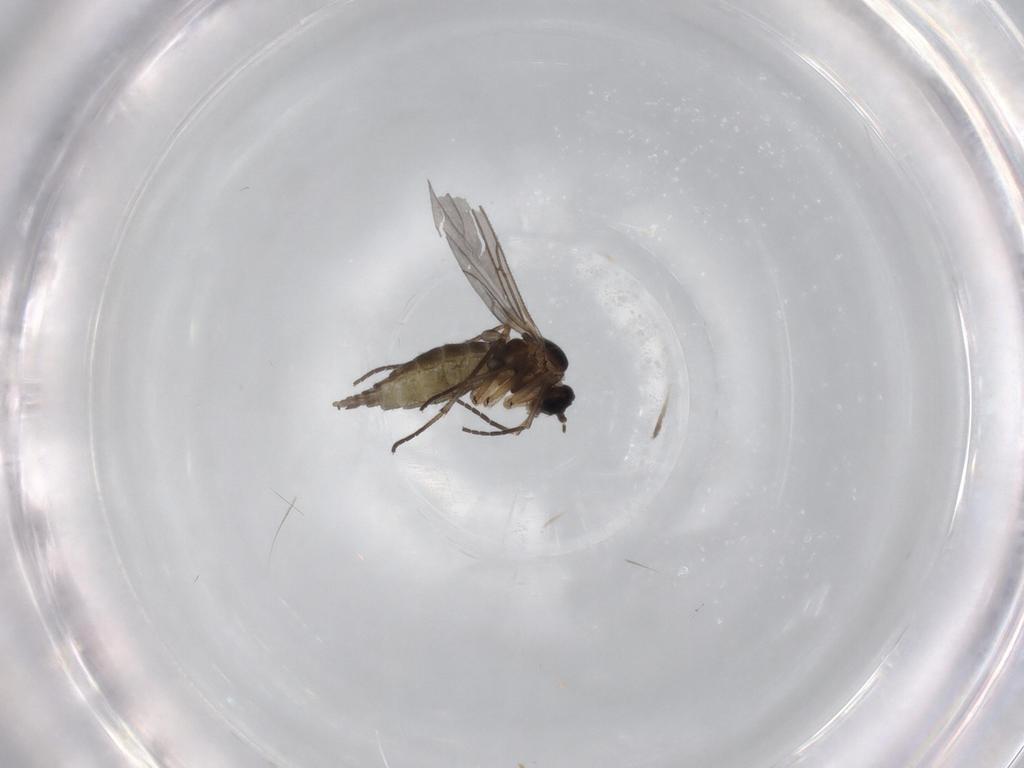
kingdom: Animalia
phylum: Arthropoda
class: Insecta
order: Diptera
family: Sciaridae
